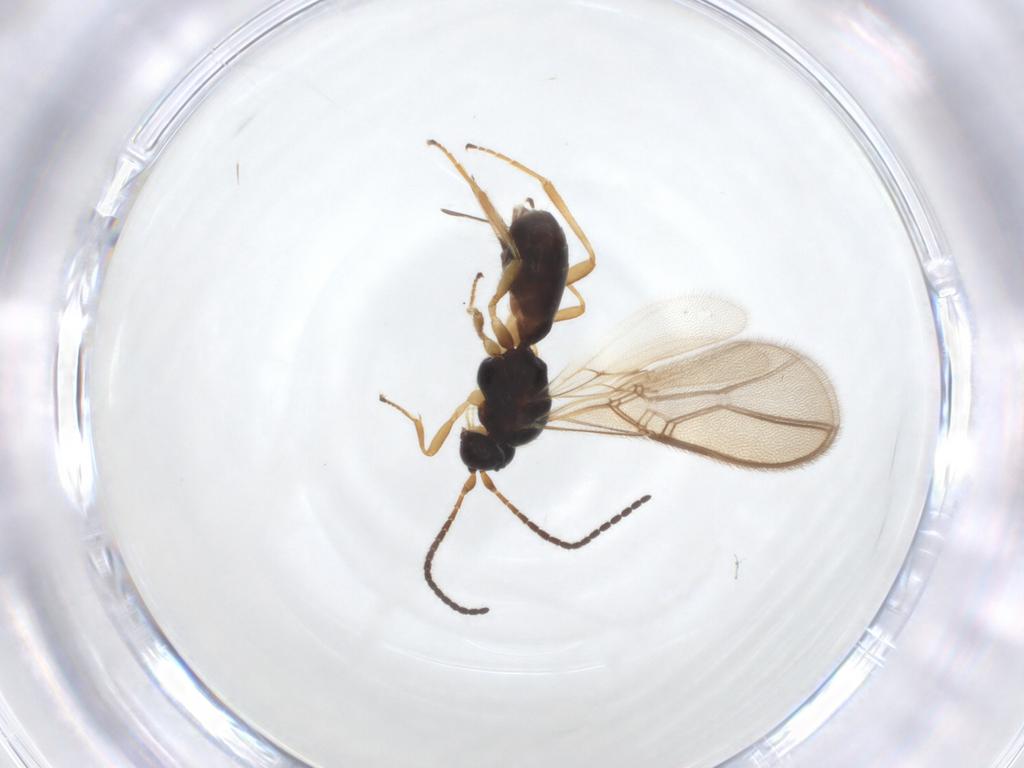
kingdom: Animalia
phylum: Arthropoda
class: Insecta
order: Hymenoptera
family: Braconidae
